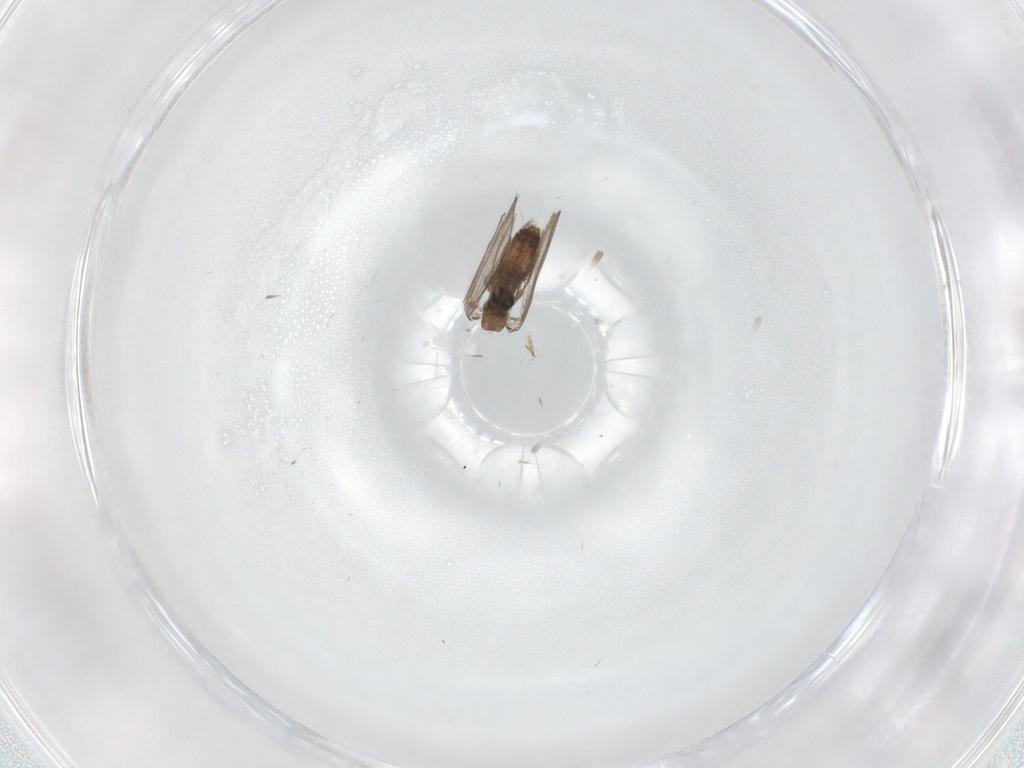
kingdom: Animalia
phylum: Arthropoda
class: Insecta
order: Diptera
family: Psychodidae
